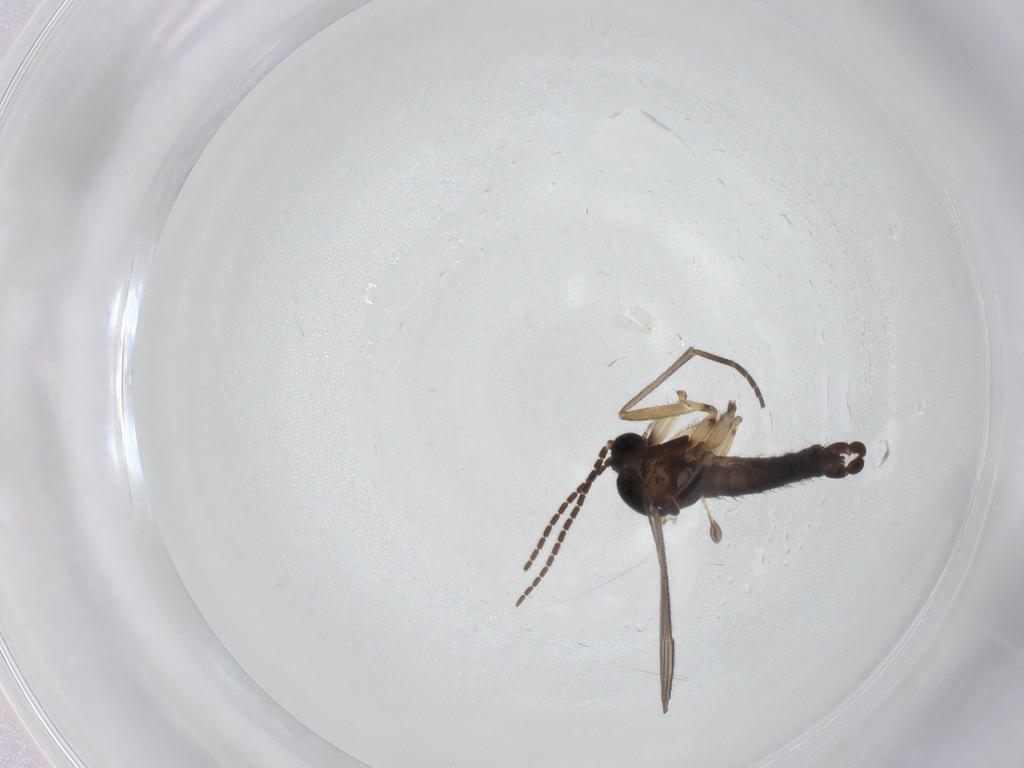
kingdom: Animalia
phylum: Arthropoda
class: Insecta
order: Diptera
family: Sciaridae
